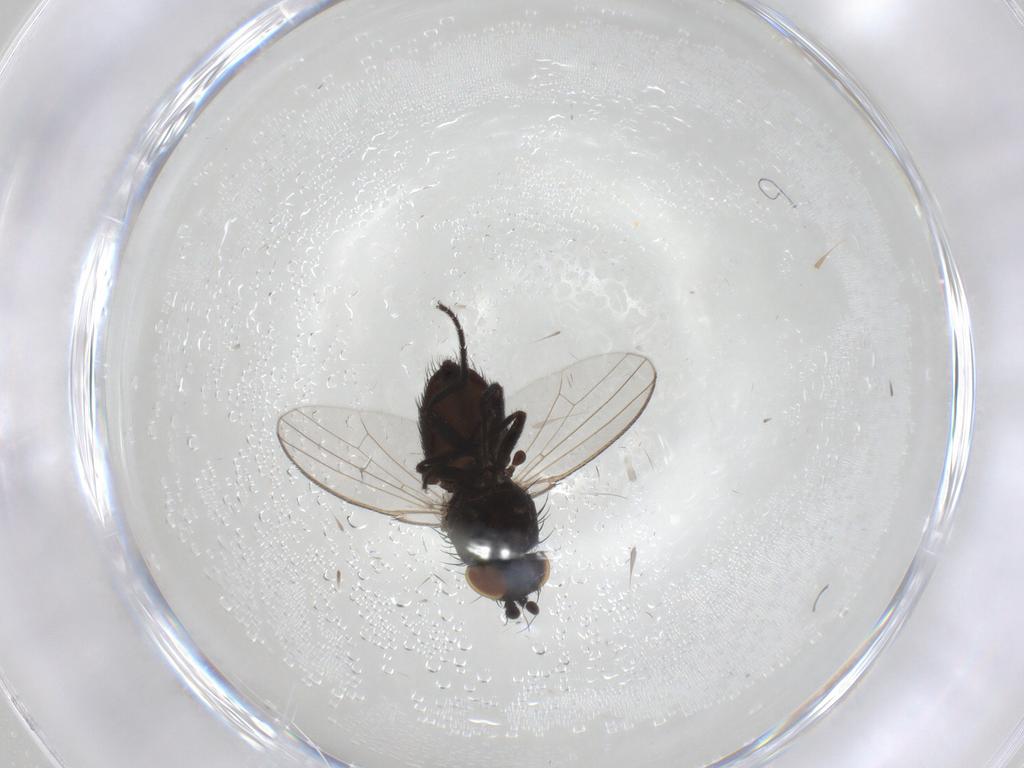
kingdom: Animalia
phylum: Arthropoda
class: Insecta
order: Diptera
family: Milichiidae
